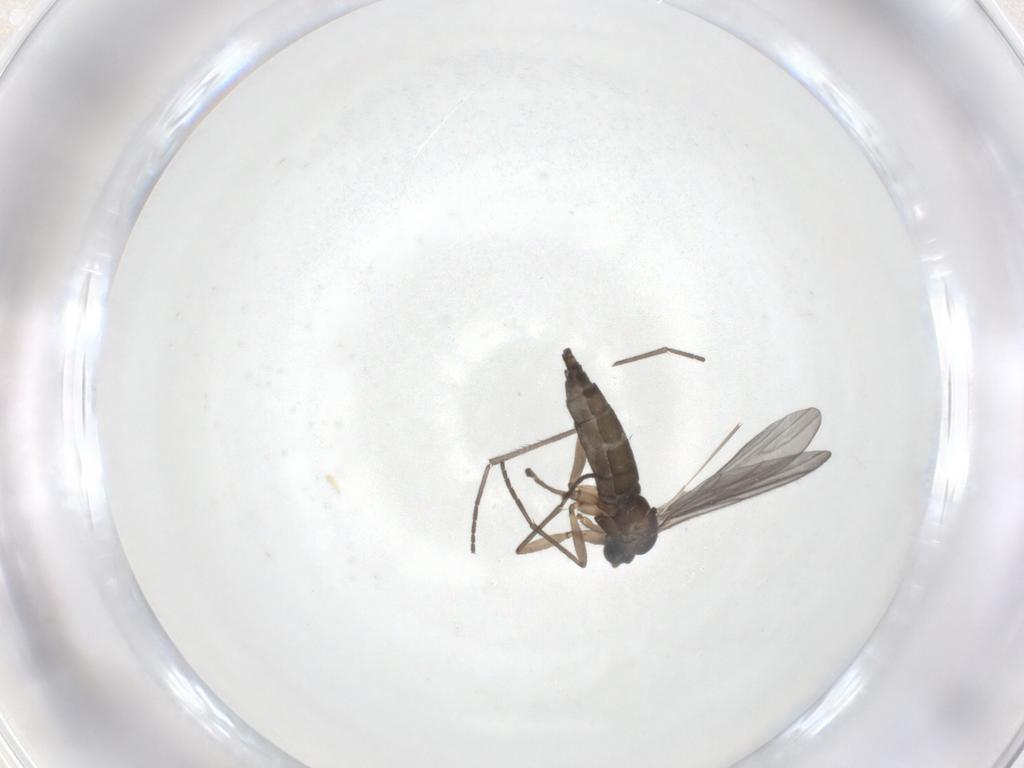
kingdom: Animalia
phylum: Arthropoda
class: Insecta
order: Diptera
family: Sciaridae
